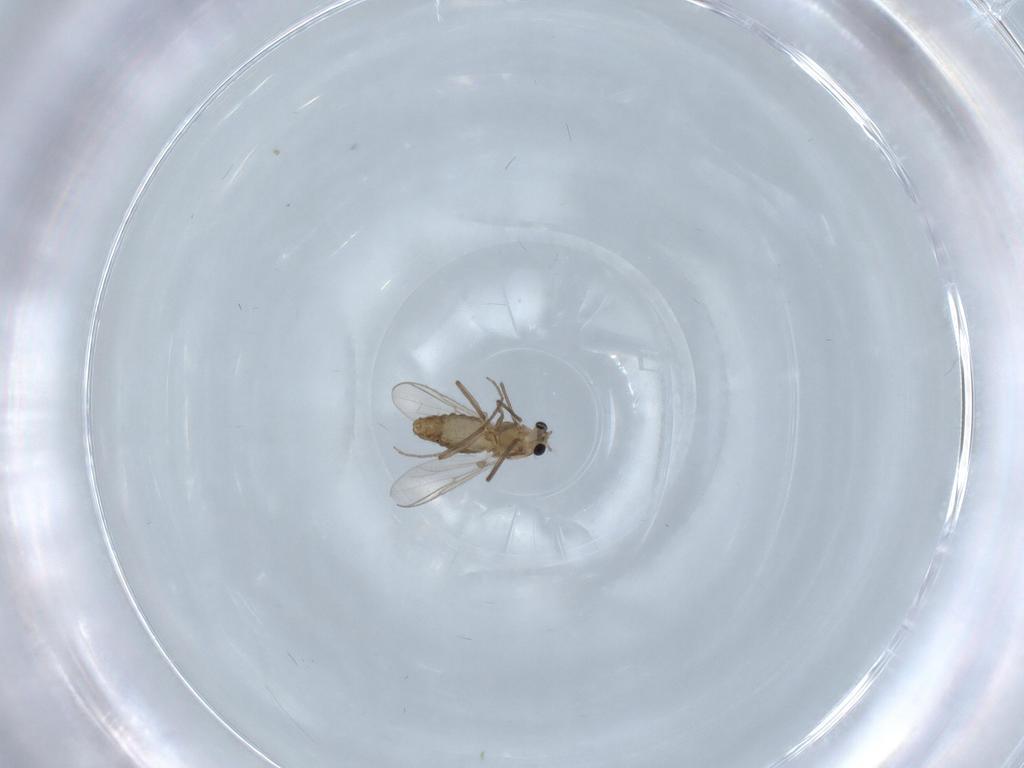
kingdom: Animalia
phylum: Arthropoda
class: Insecta
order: Diptera
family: Chironomidae
